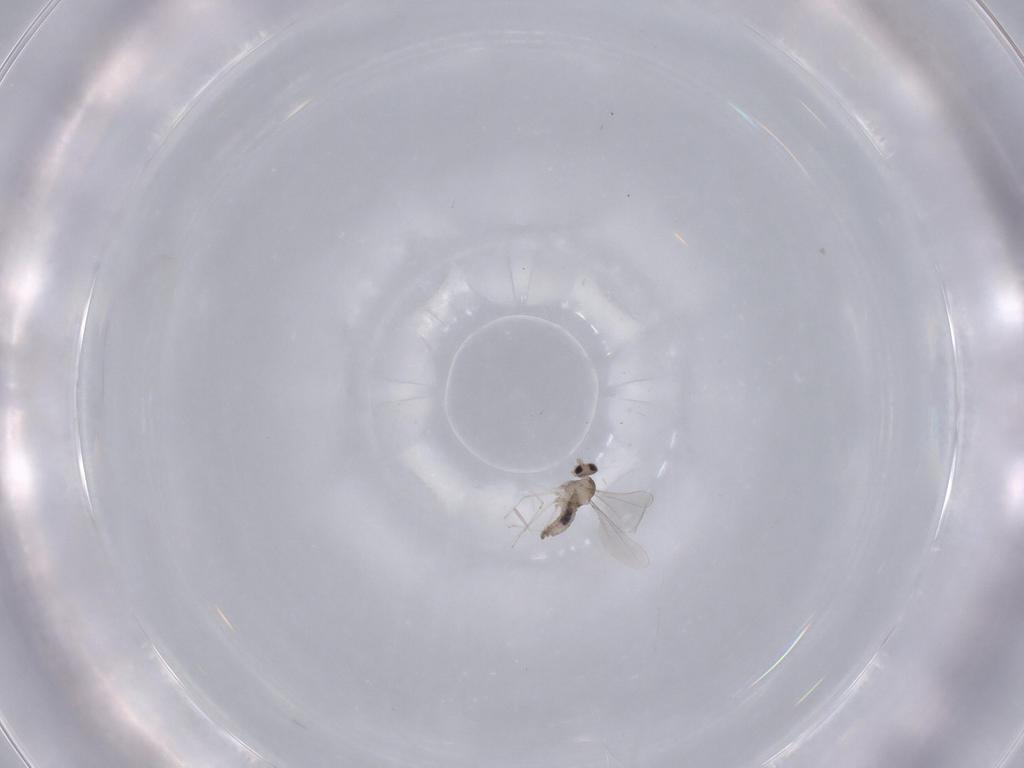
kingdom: Animalia
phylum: Arthropoda
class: Insecta
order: Diptera
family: Cecidomyiidae
